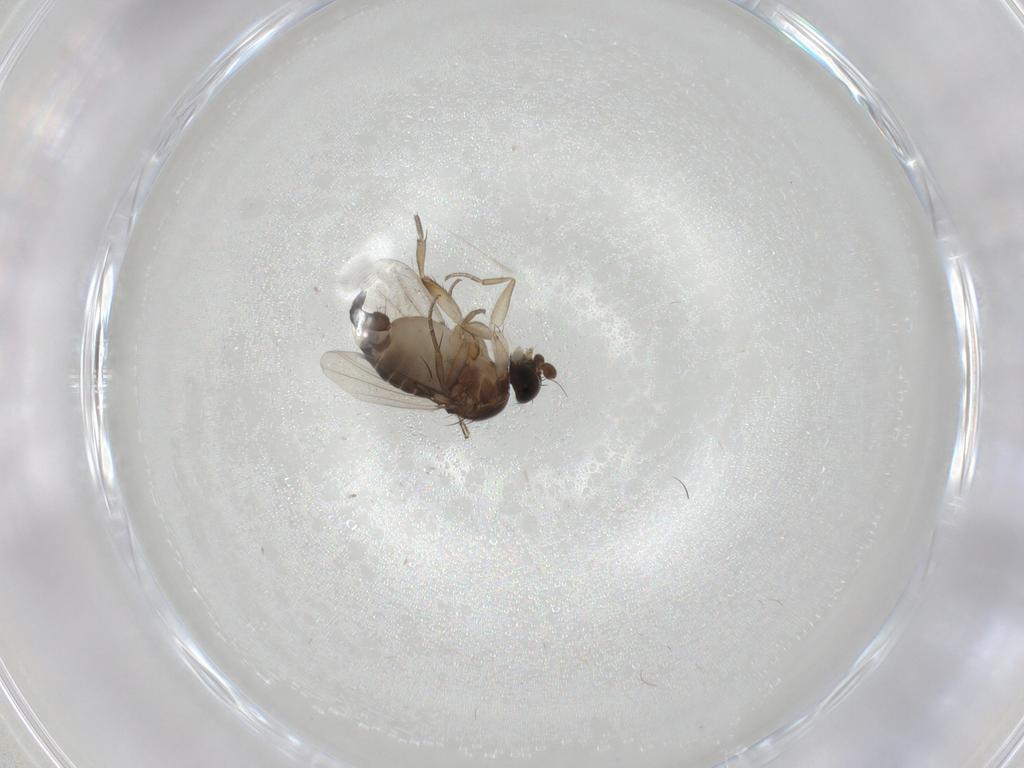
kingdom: Animalia
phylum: Arthropoda
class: Insecta
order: Diptera
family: Phoridae
